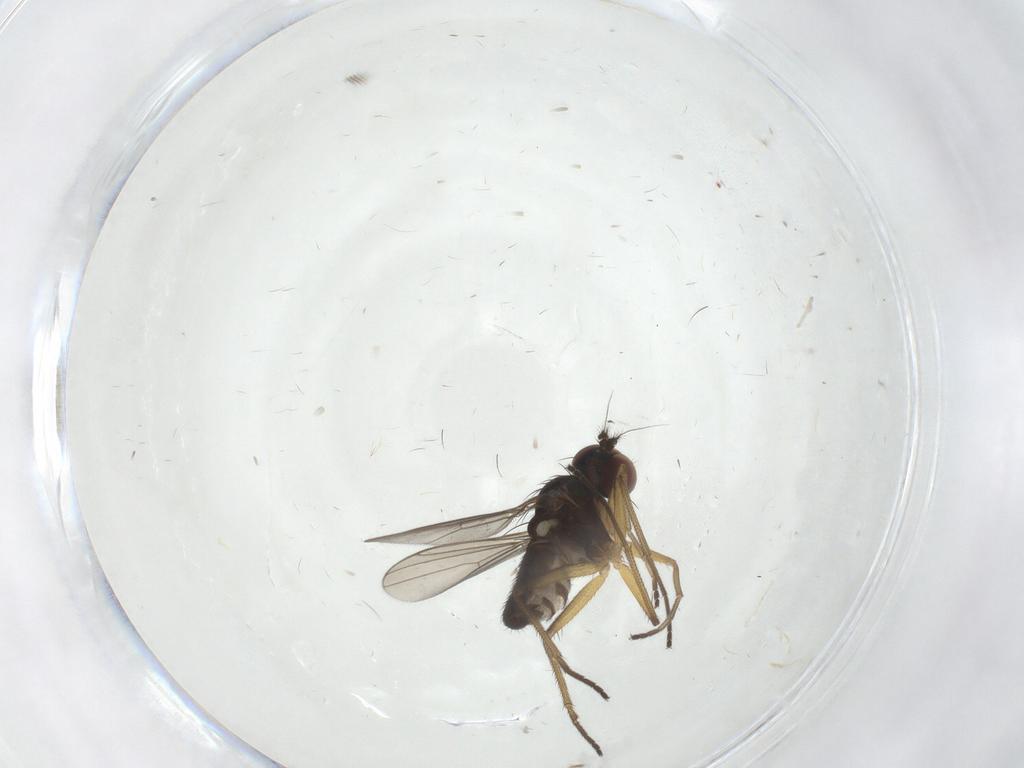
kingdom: Animalia
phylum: Arthropoda
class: Insecta
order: Diptera
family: Dolichopodidae
